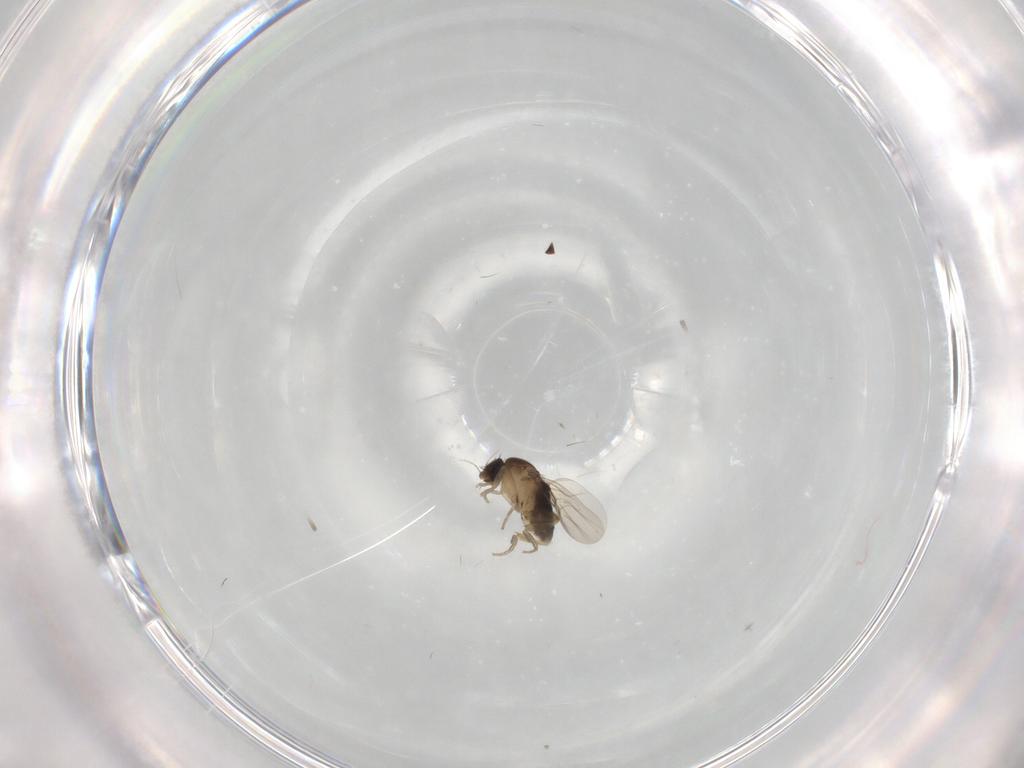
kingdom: Animalia
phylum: Arthropoda
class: Insecta
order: Diptera
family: Phoridae
